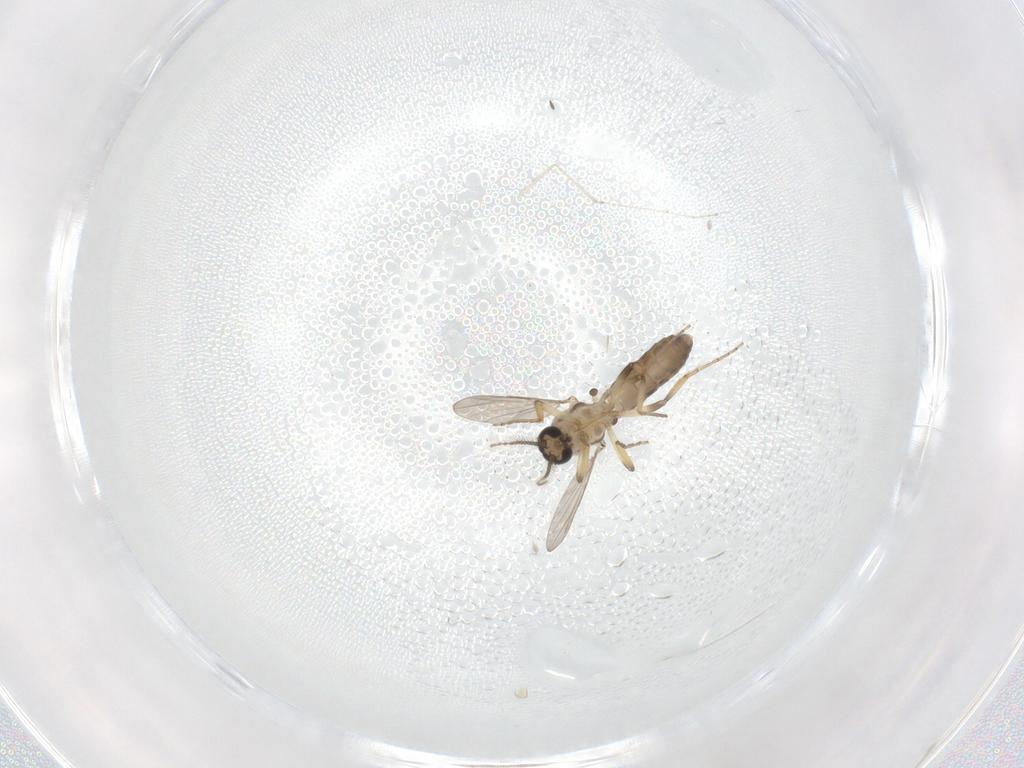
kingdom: Animalia
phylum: Arthropoda
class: Insecta
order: Diptera
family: Ceratopogonidae
